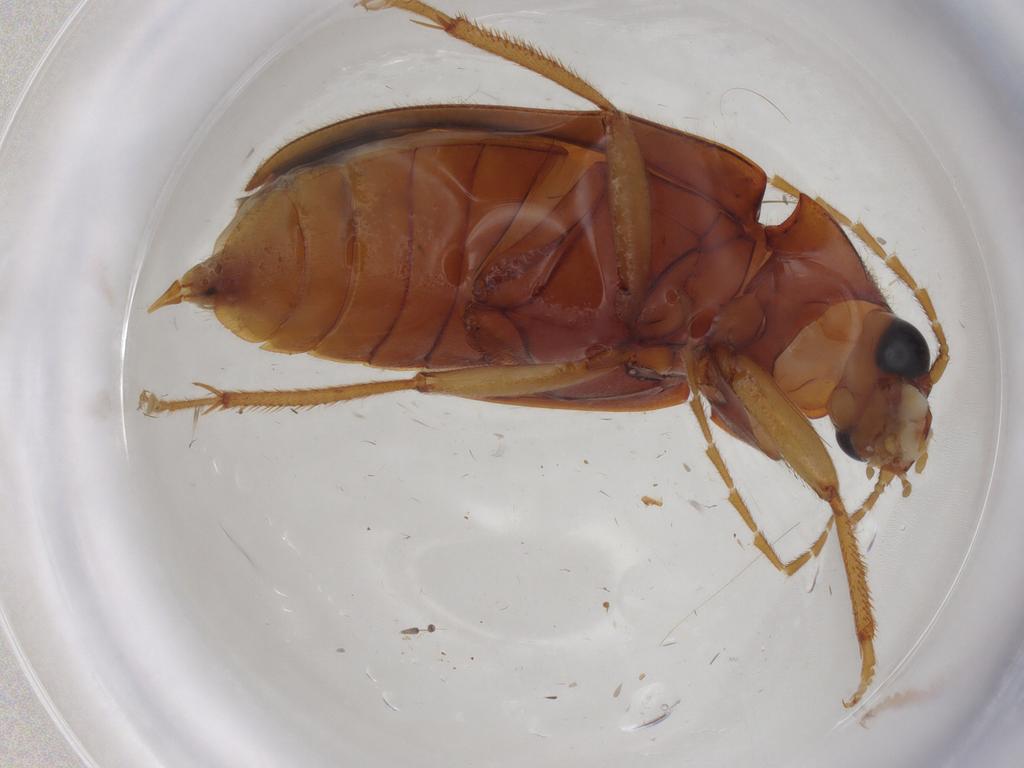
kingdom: Animalia
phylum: Arthropoda
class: Insecta
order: Coleoptera
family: Ptilodactylidae
